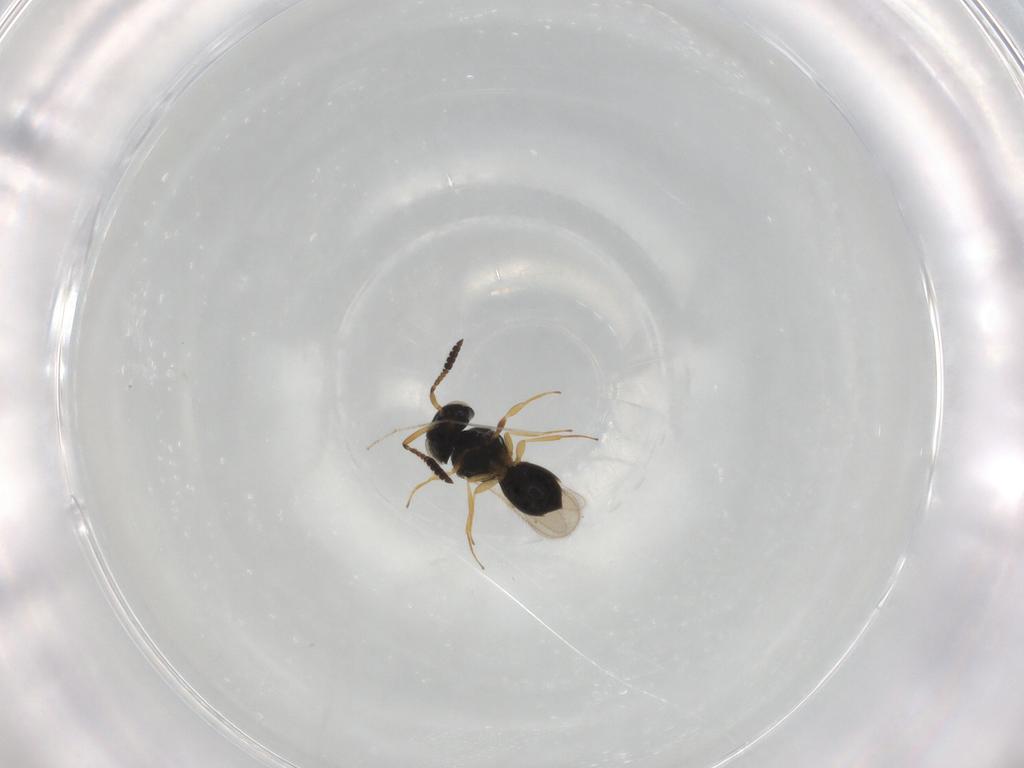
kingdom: Animalia
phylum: Arthropoda
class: Insecta
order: Hymenoptera
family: Scelionidae
